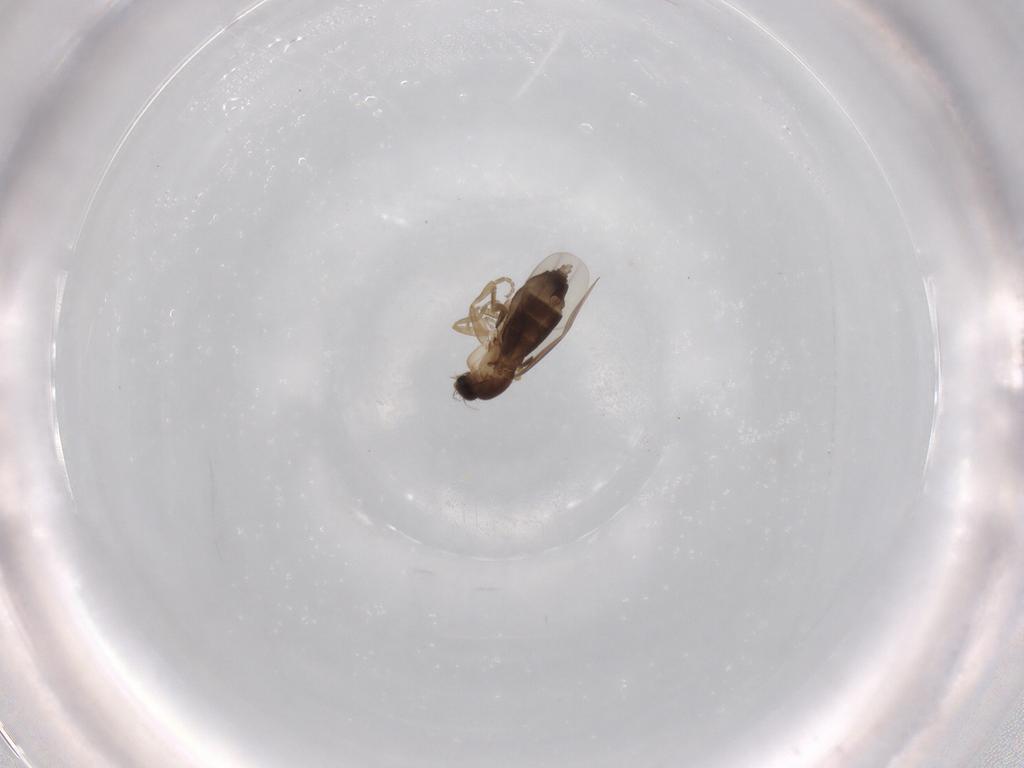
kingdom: Animalia
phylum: Arthropoda
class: Insecta
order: Diptera
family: Phoridae
